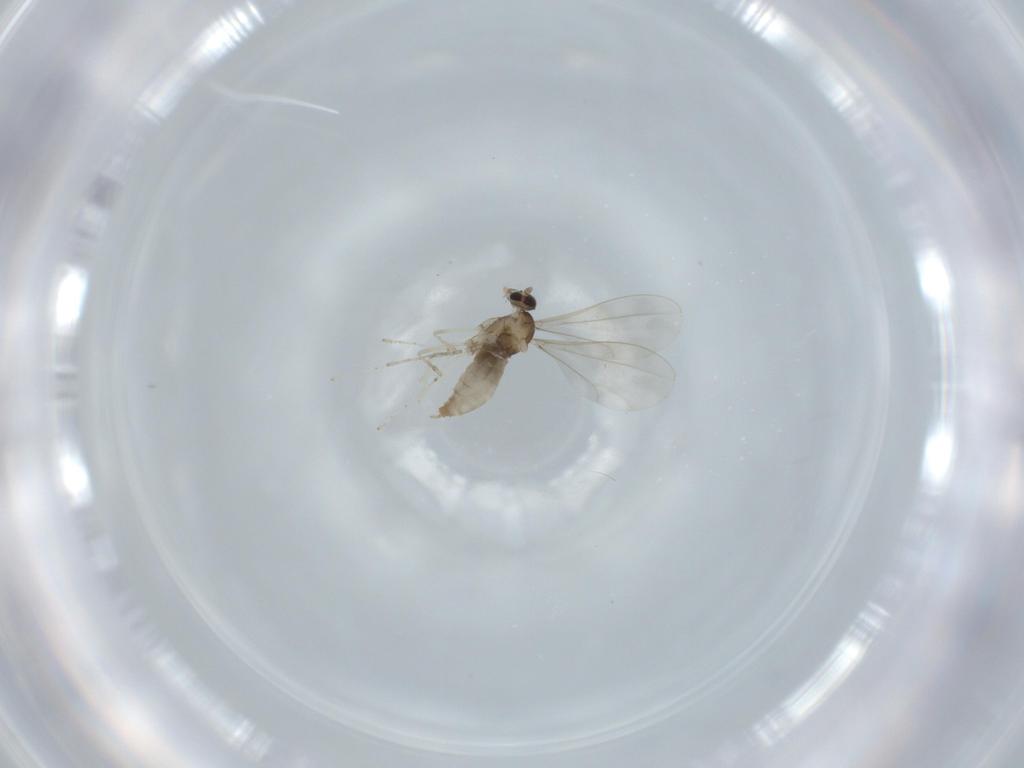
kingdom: Animalia
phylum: Arthropoda
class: Insecta
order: Diptera
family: Cecidomyiidae
